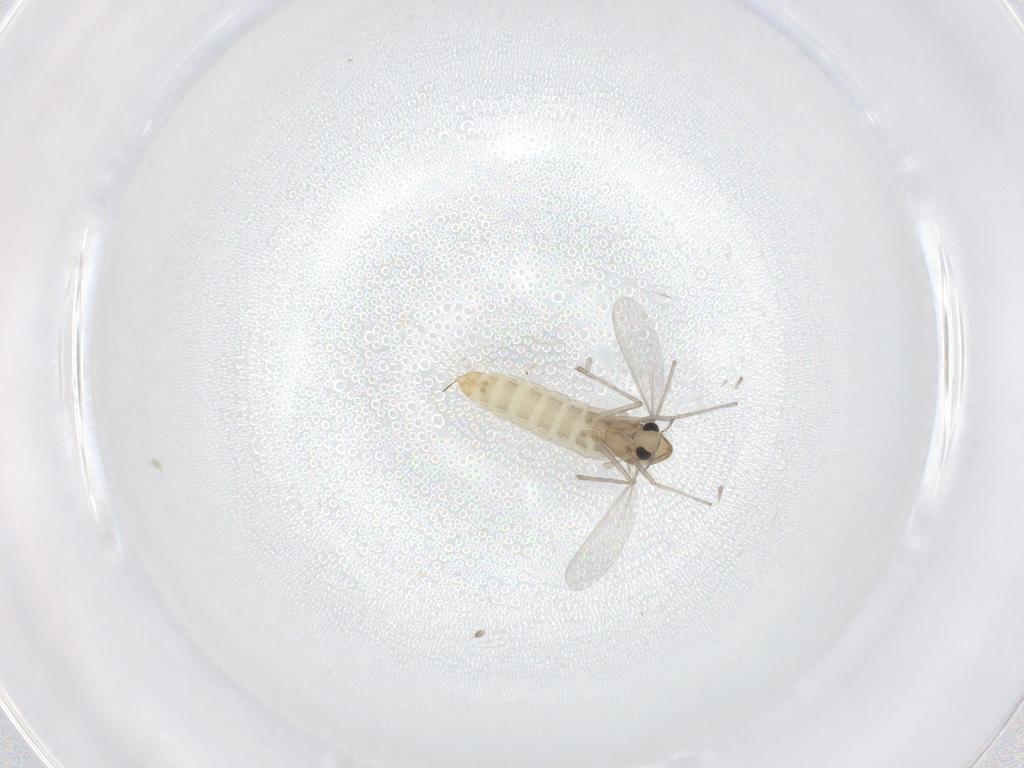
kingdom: Animalia
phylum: Arthropoda
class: Insecta
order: Diptera
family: Chironomidae
